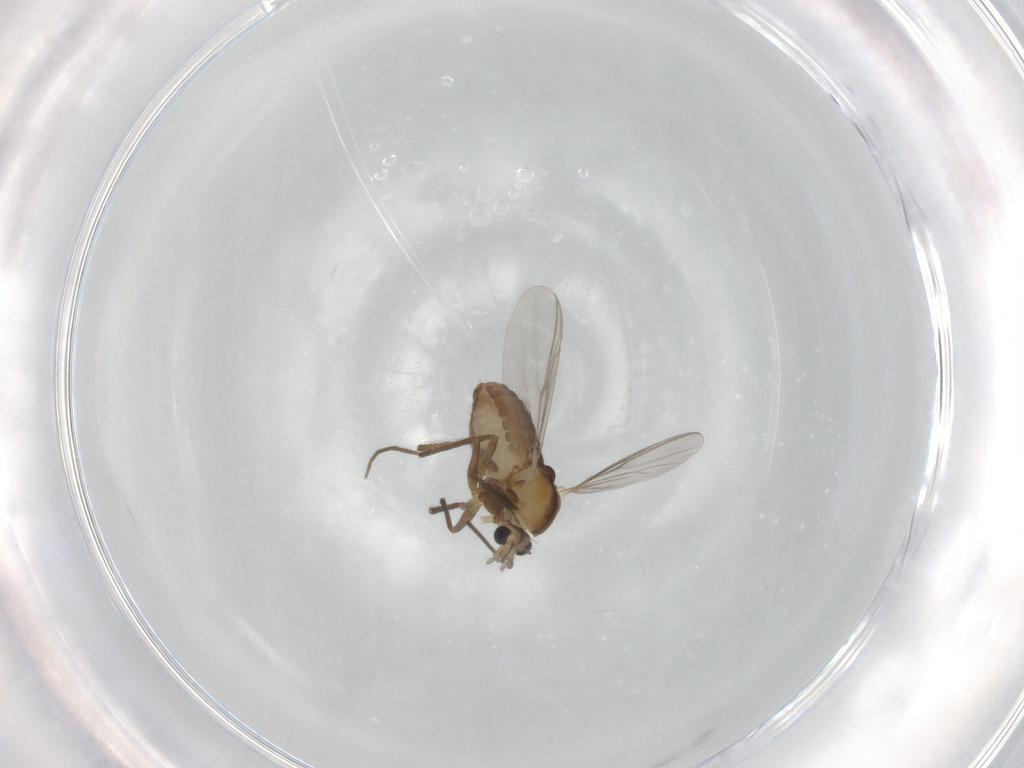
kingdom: Animalia
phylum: Arthropoda
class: Insecta
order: Diptera
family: Chironomidae
